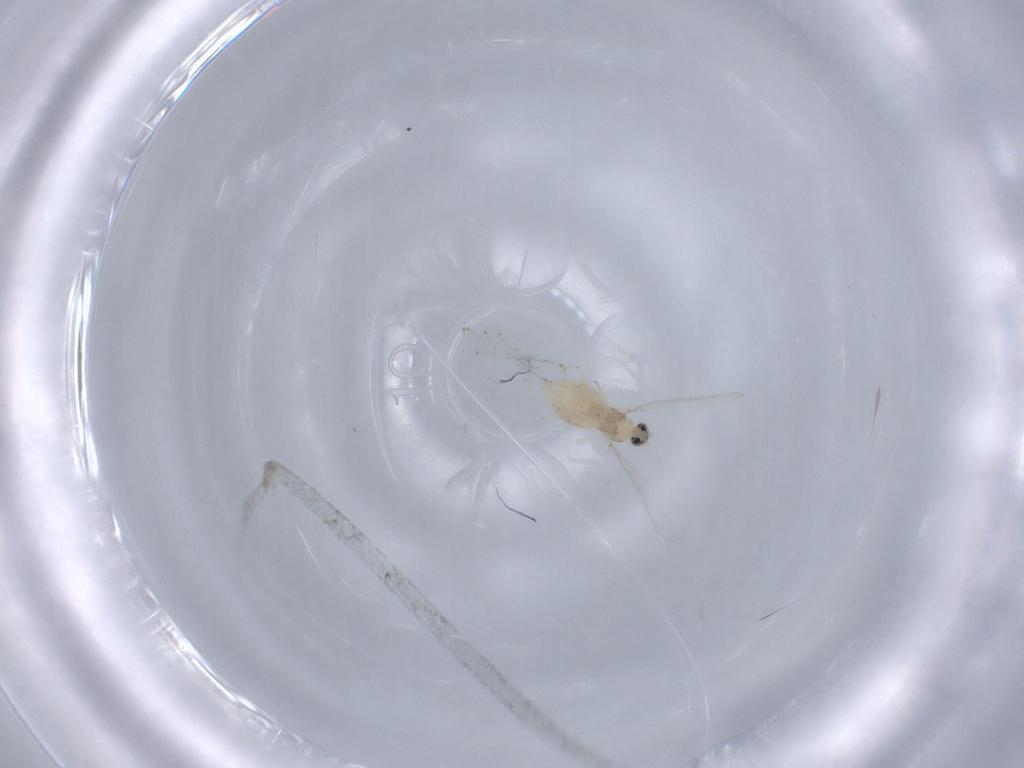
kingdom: Animalia
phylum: Arthropoda
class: Insecta
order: Diptera
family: Cecidomyiidae
